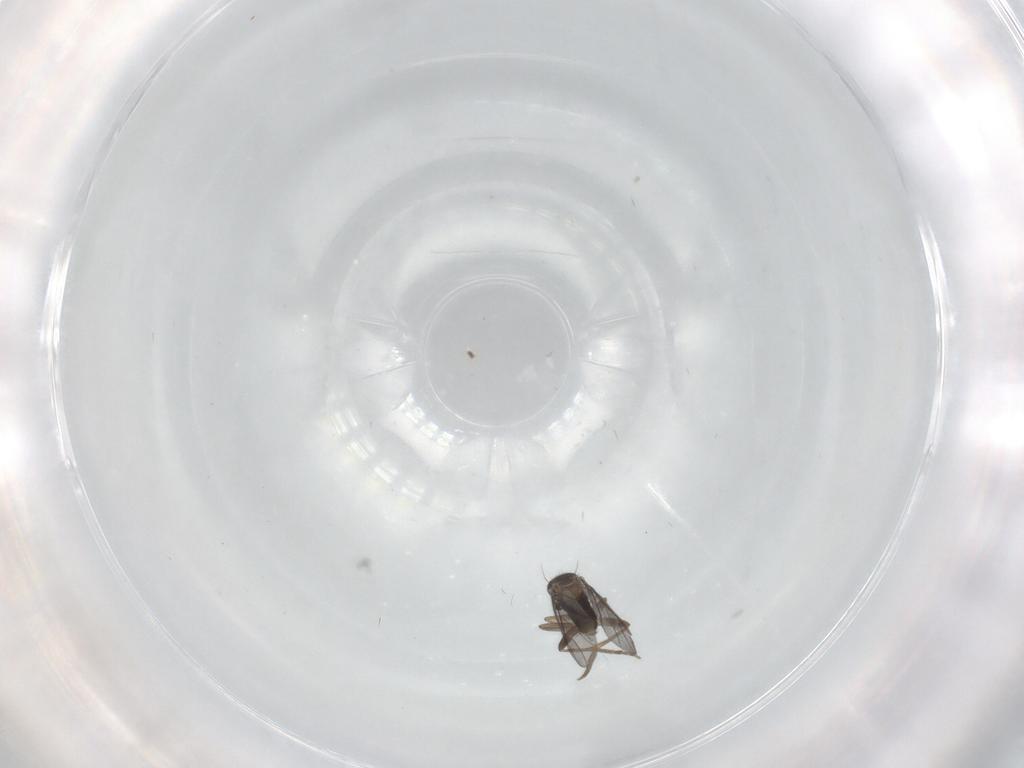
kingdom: Animalia
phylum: Arthropoda
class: Insecta
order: Diptera
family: Mycetophilidae
